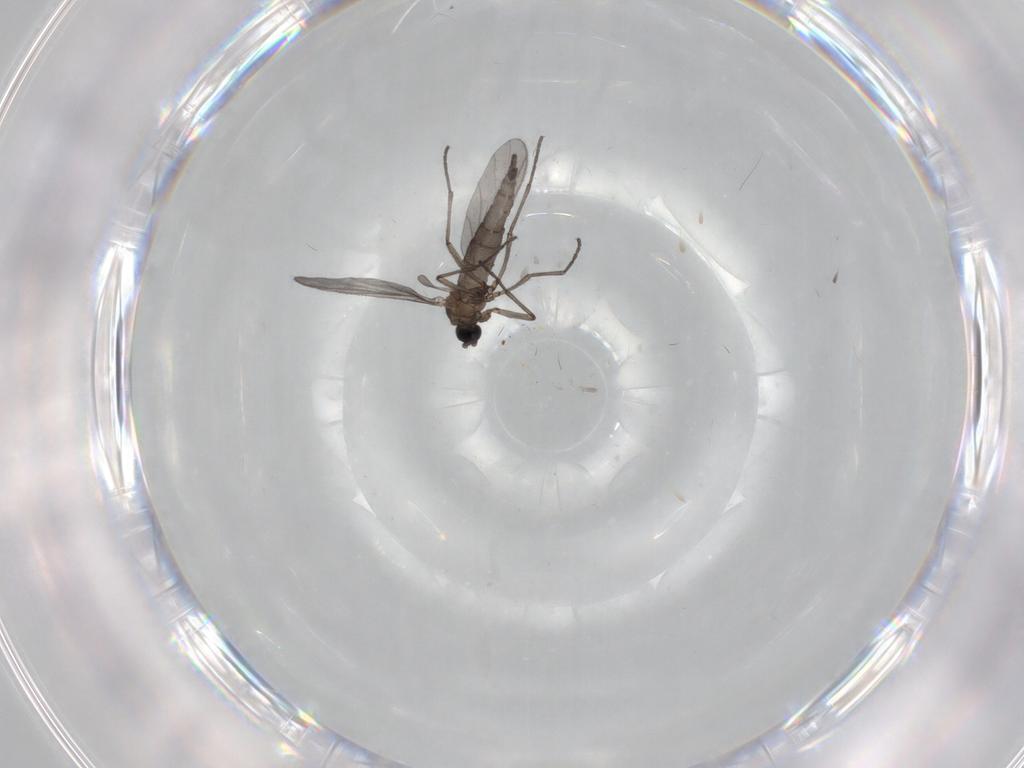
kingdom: Animalia
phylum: Arthropoda
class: Insecta
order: Diptera
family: Sciaridae
